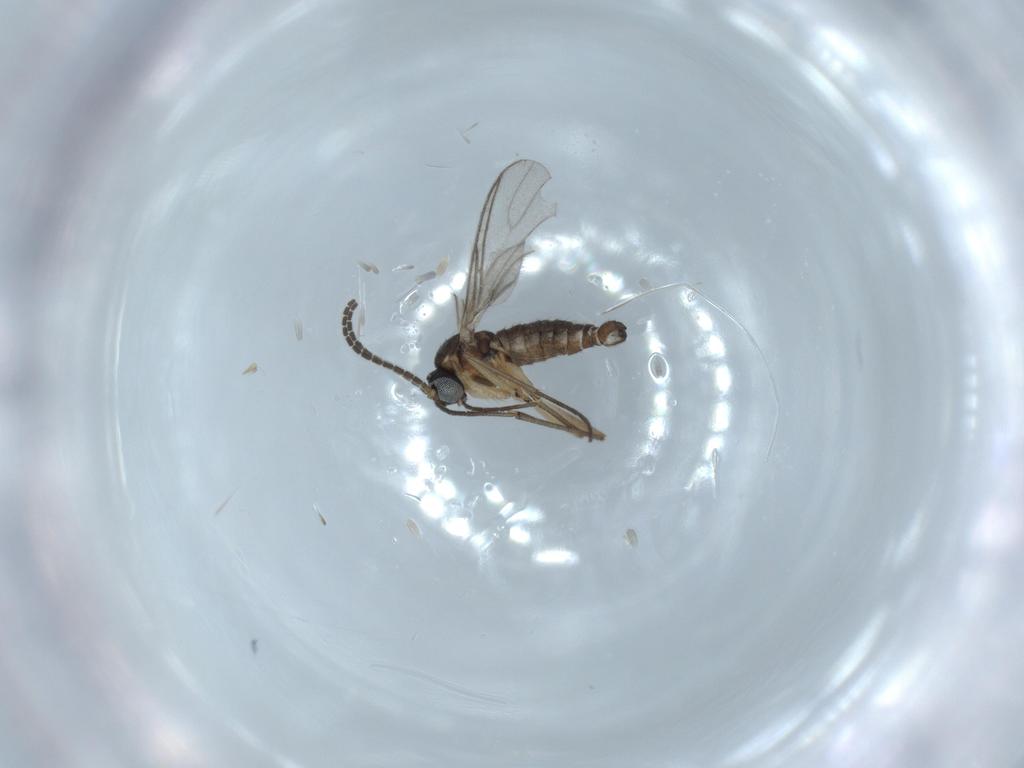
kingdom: Animalia
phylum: Arthropoda
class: Insecta
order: Diptera
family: Sciaridae
